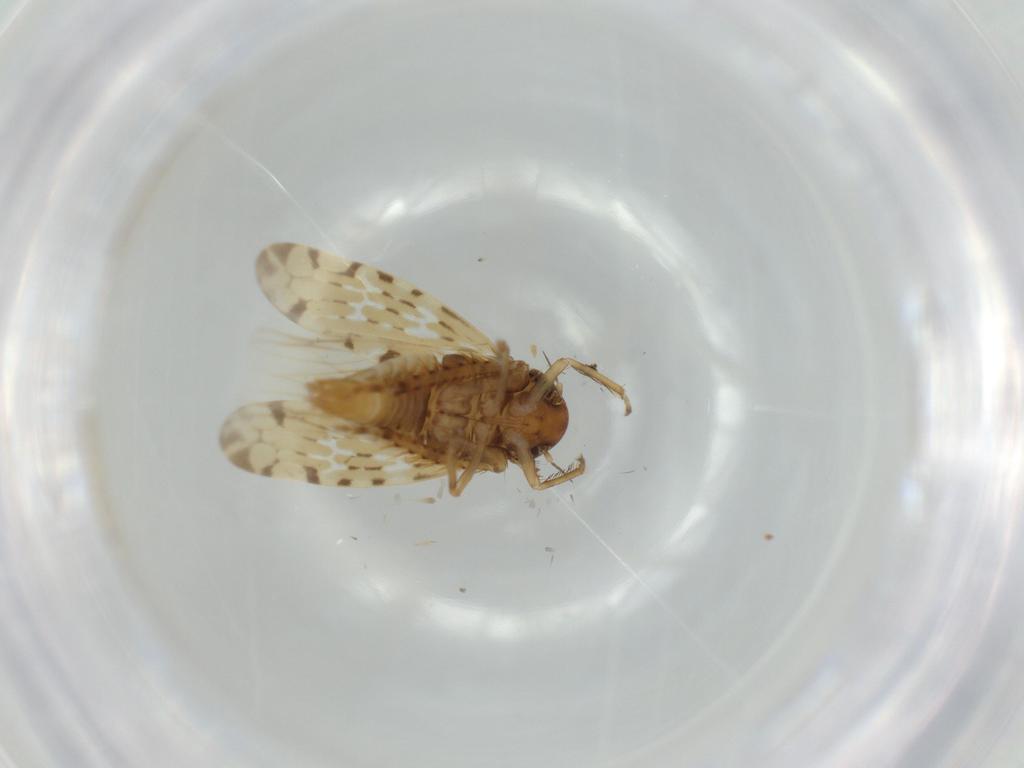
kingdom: Animalia
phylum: Arthropoda
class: Insecta
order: Hemiptera
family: Cicadellidae
